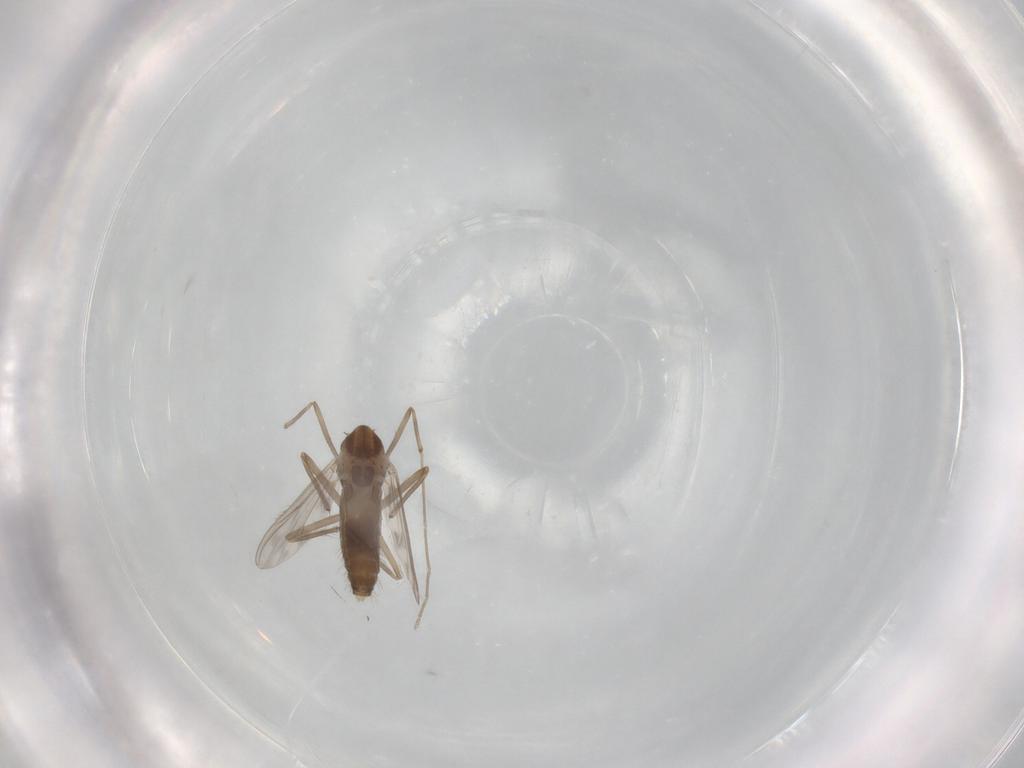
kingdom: Animalia
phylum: Arthropoda
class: Insecta
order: Diptera
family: Chironomidae
